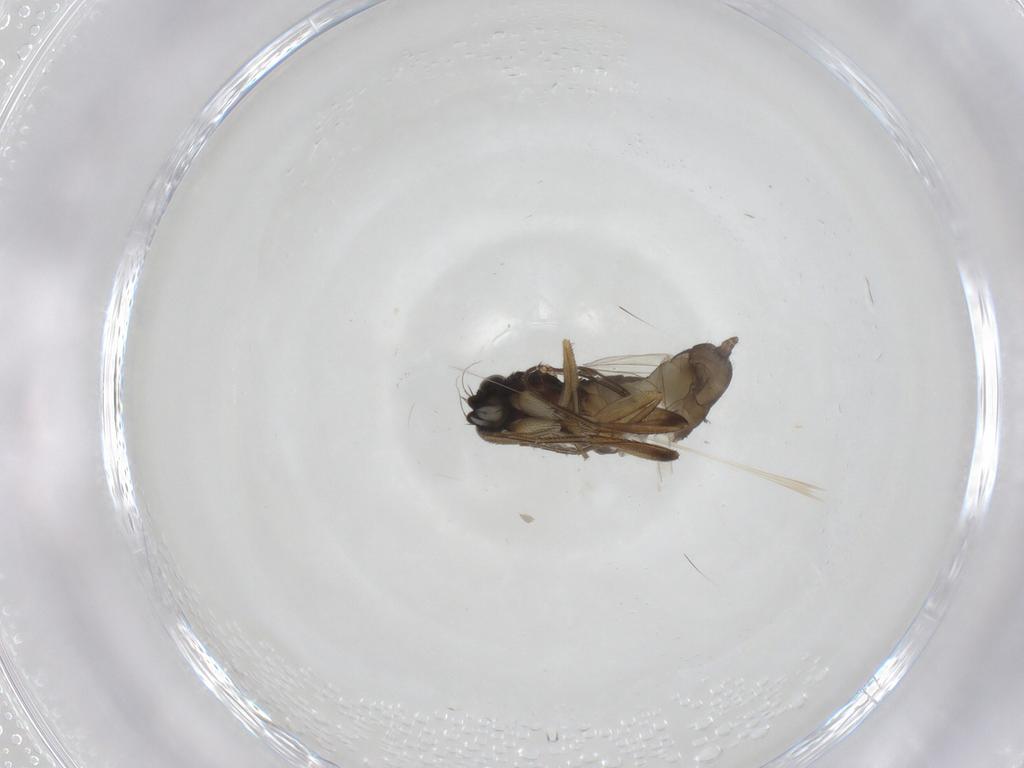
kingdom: Animalia
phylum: Arthropoda
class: Insecta
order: Diptera
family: Phoridae
